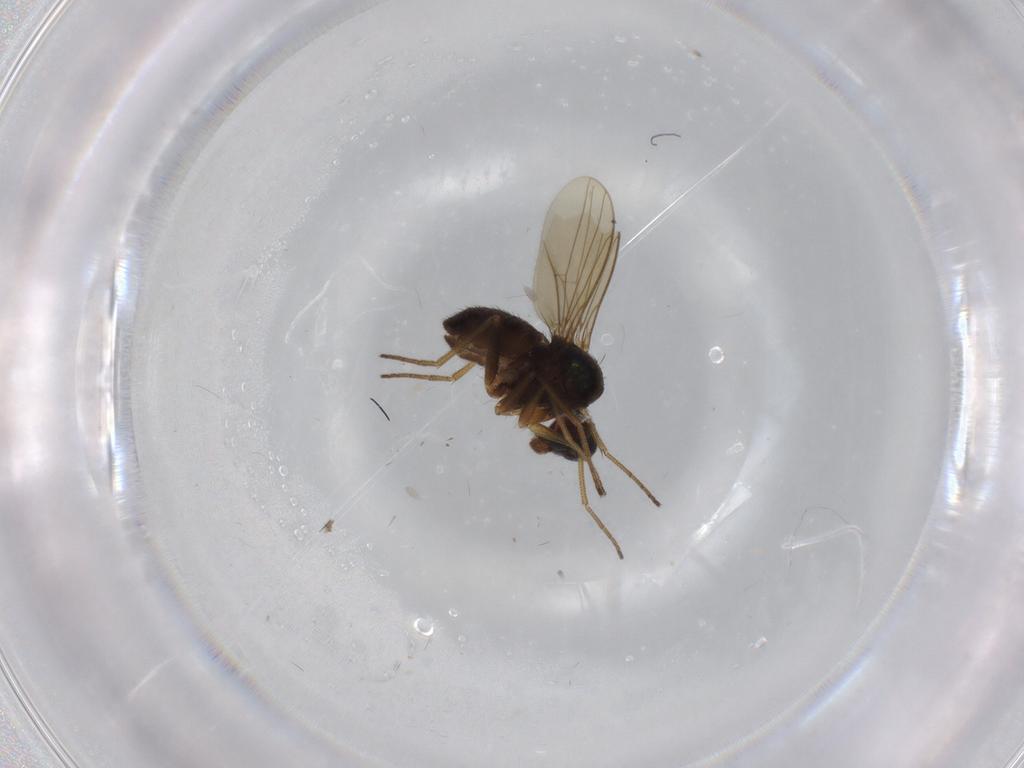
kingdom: Animalia
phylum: Arthropoda
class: Insecta
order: Diptera
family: Dolichopodidae
